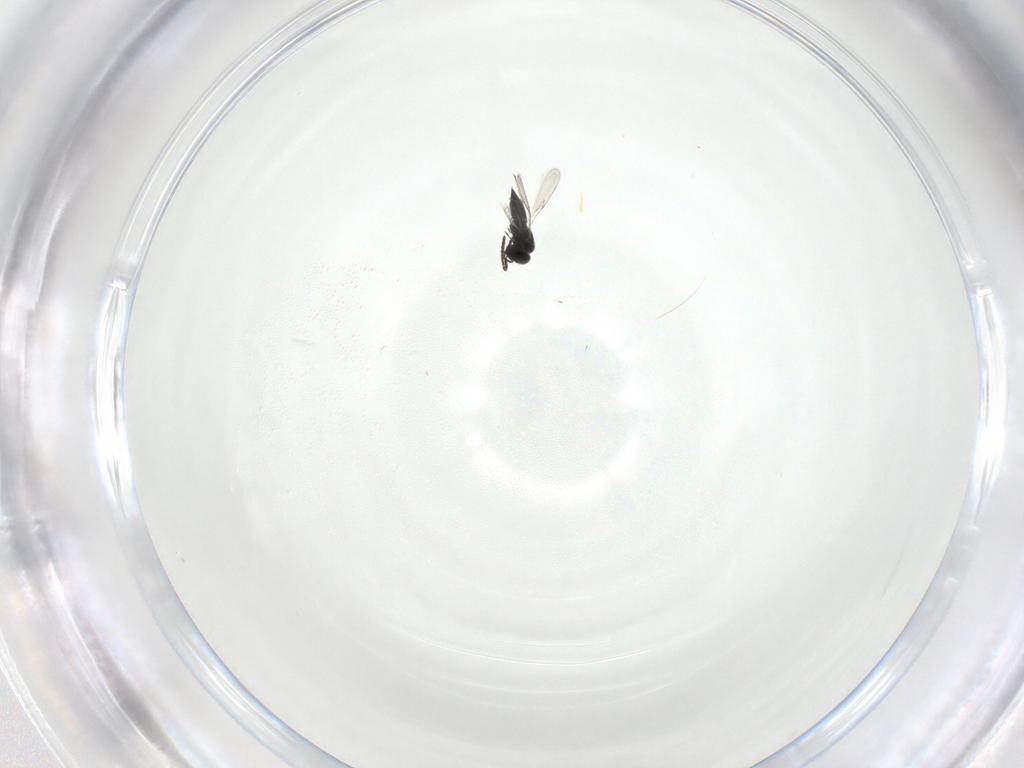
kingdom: Animalia
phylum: Arthropoda
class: Insecta
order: Hymenoptera
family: Scelionidae
